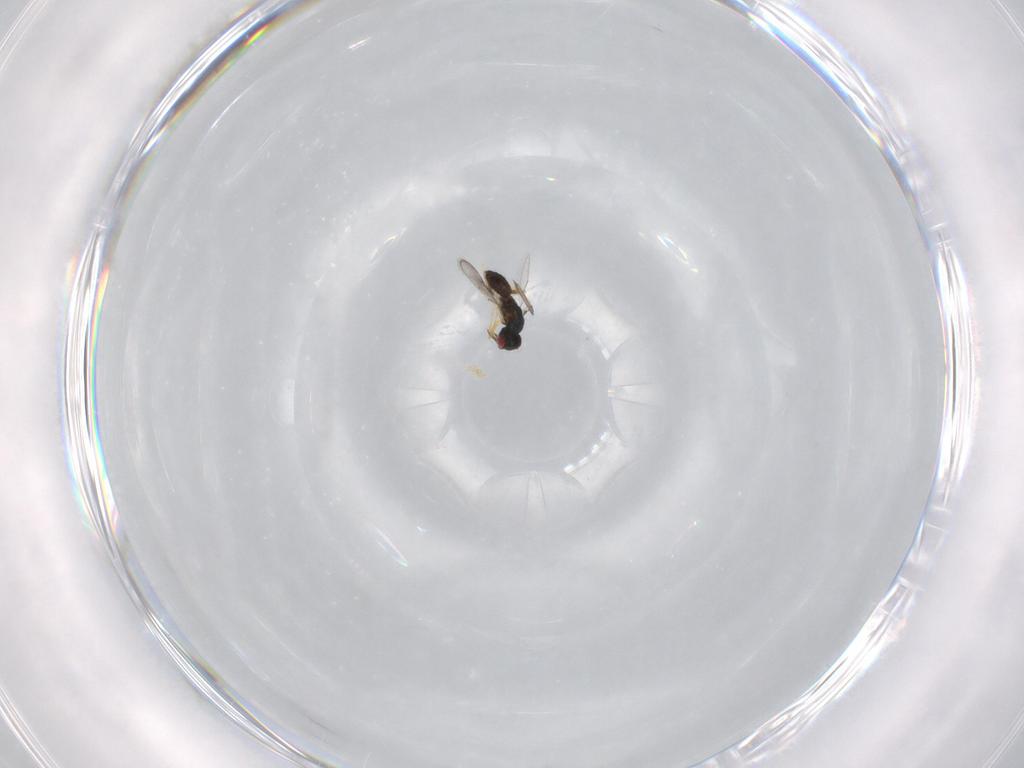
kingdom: Animalia
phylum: Arthropoda
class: Insecta
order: Hymenoptera
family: Eulophidae
